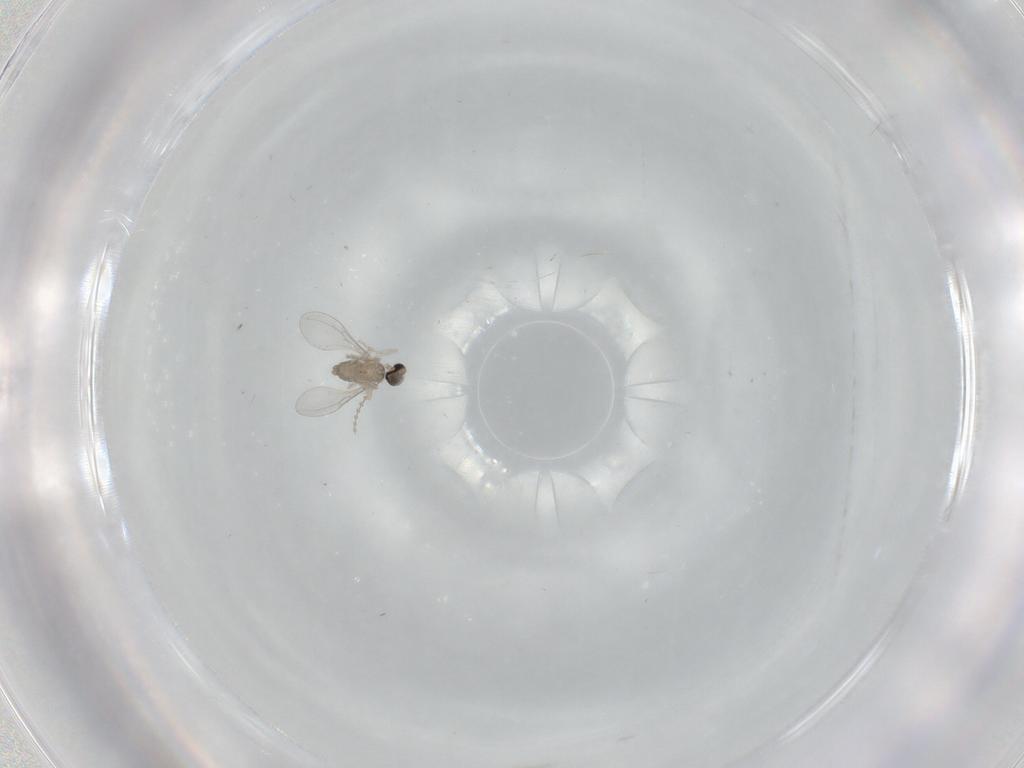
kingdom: Animalia
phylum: Arthropoda
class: Insecta
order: Diptera
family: Cecidomyiidae
